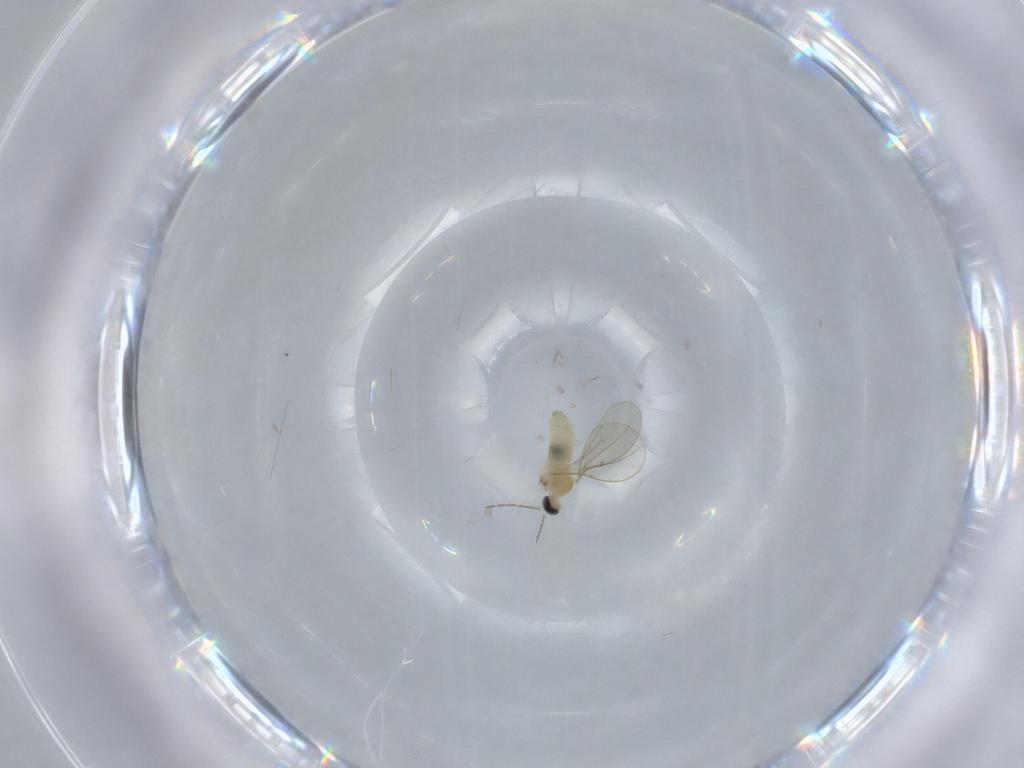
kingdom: Animalia
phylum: Arthropoda
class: Insecta
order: Diptera
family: Cecidomyiidae
